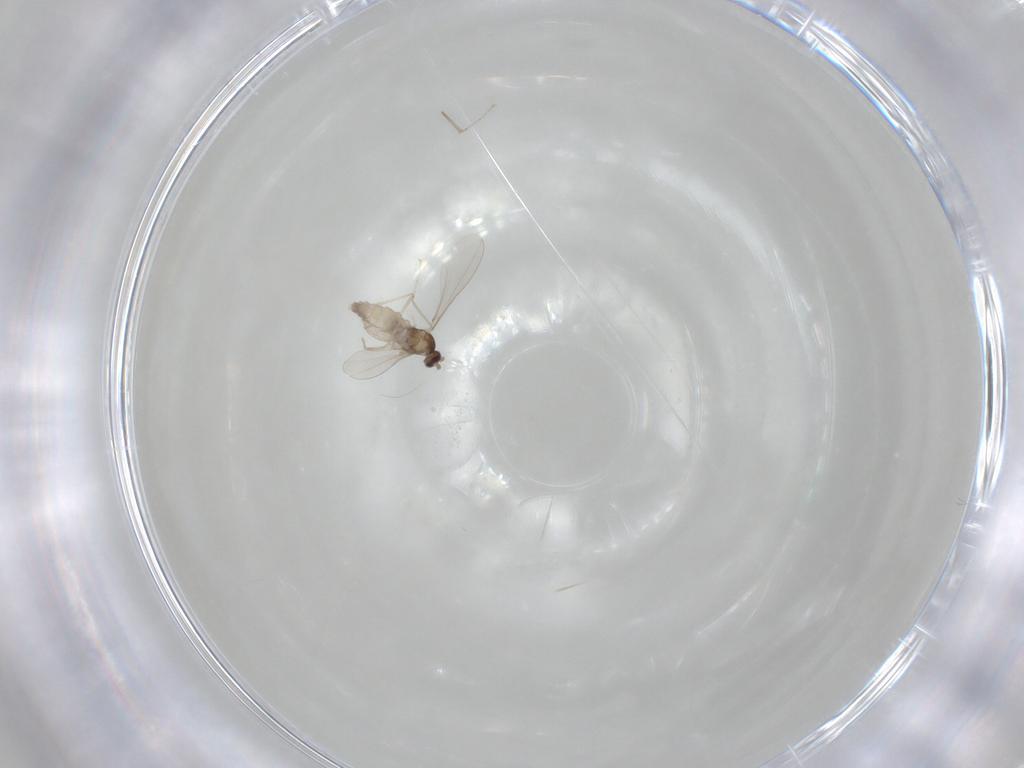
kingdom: Animalia
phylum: Arthropoda
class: Insecta
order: Diptera
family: Cecidomyiidae
